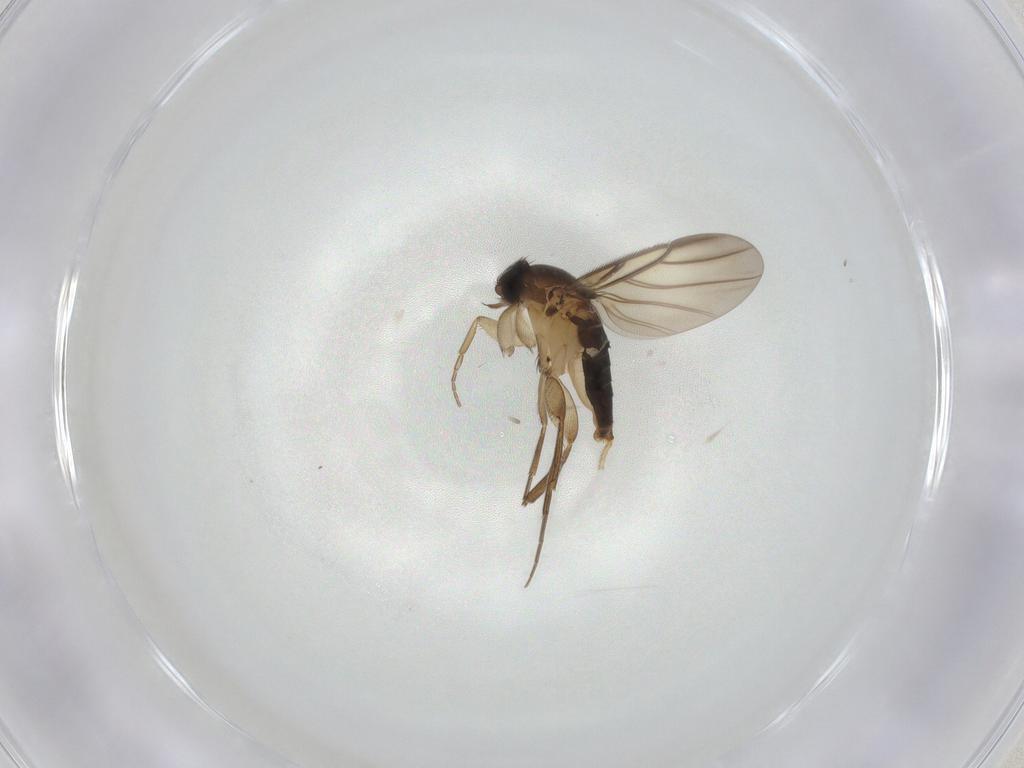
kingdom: Animalia
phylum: Arthropoda
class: Insecta
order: Diptera
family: Phoridae
